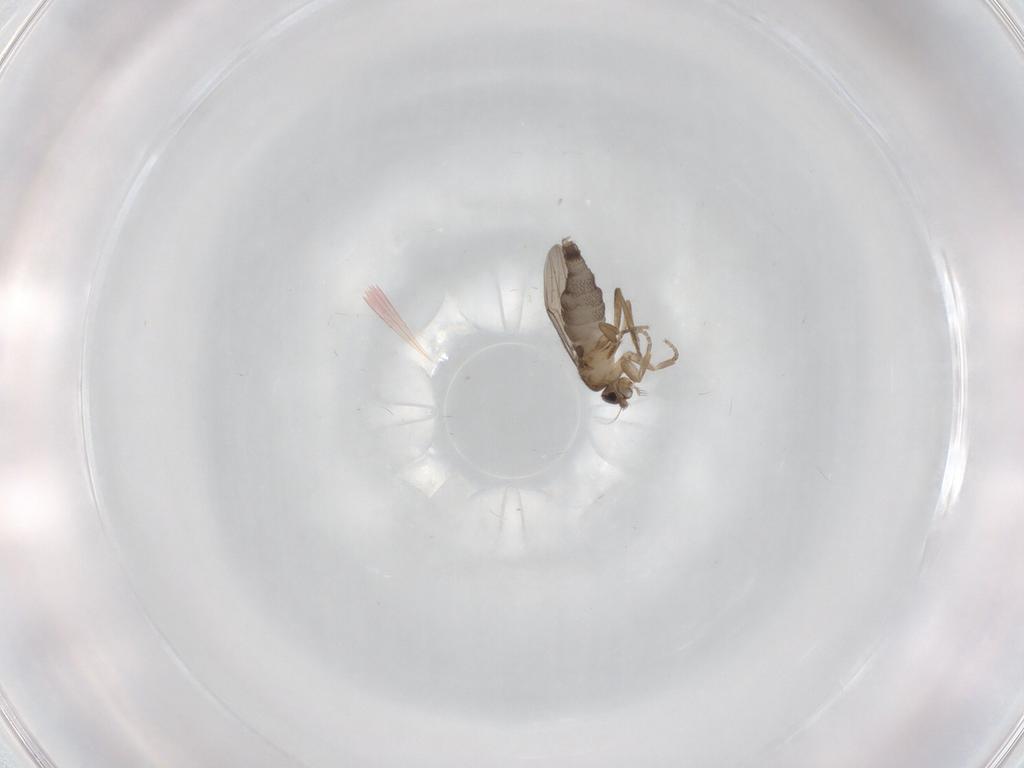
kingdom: Animalia
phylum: Arthropoda
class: Insecta
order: Diptera
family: Phoridae
